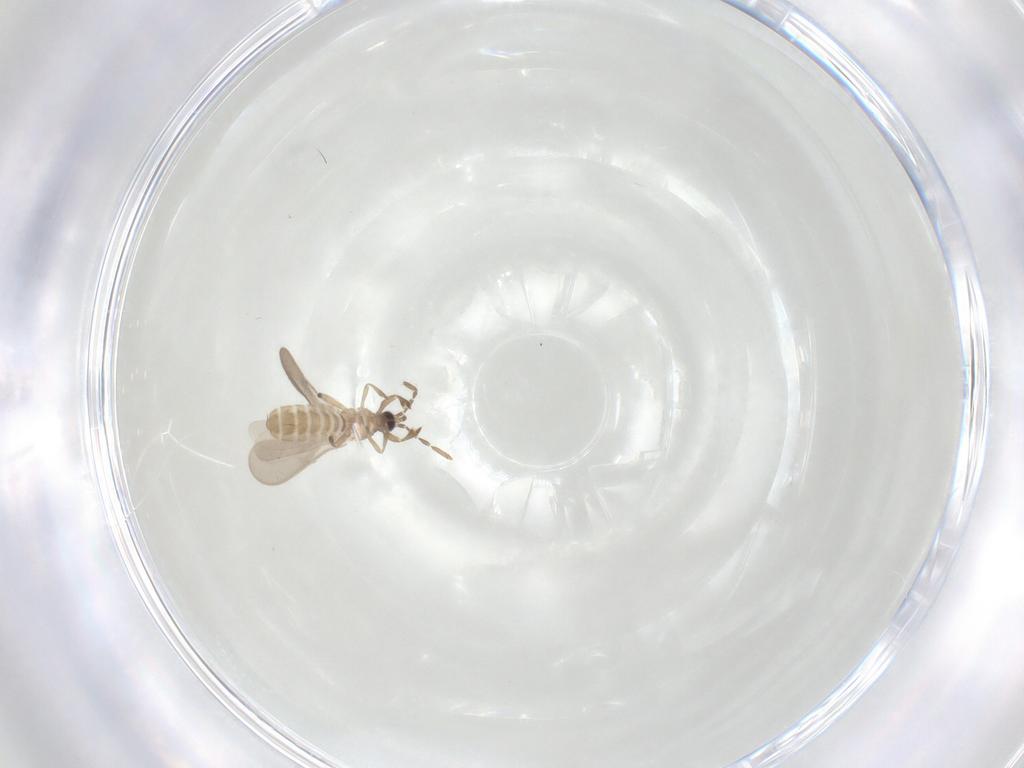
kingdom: Animalia
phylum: Arthropoda
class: Insecta
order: Hemiptera
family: Enicocephalidae
